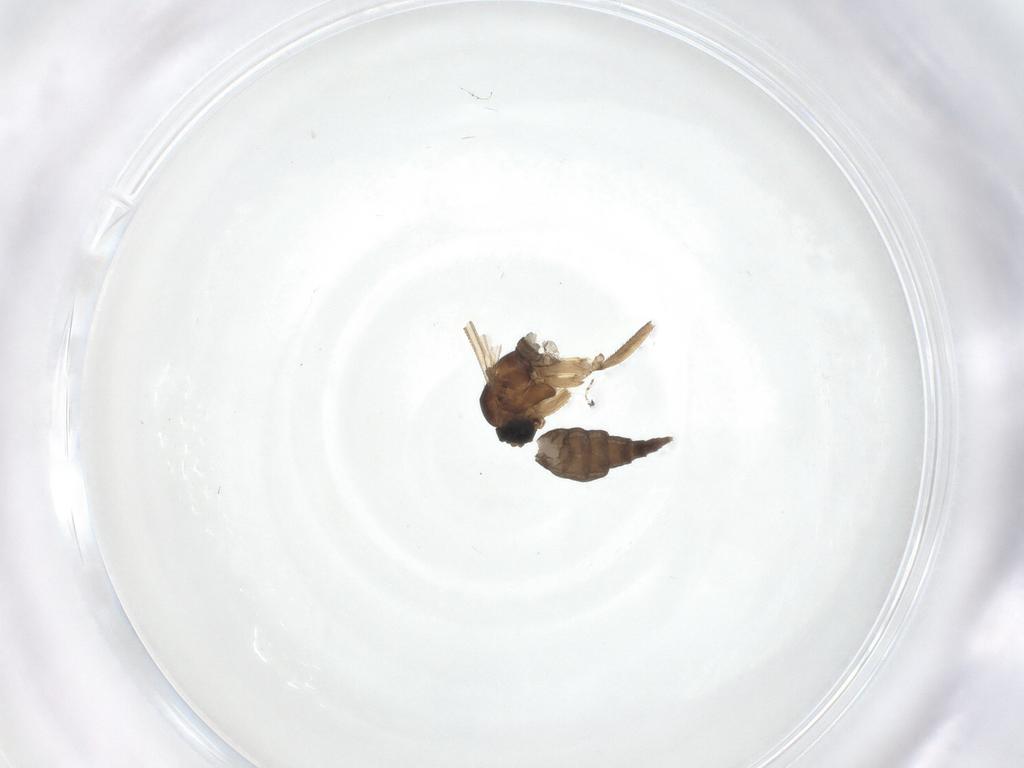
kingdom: Animalia
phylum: Arthropoda
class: Insecta
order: Diptera
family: Sciaridae
